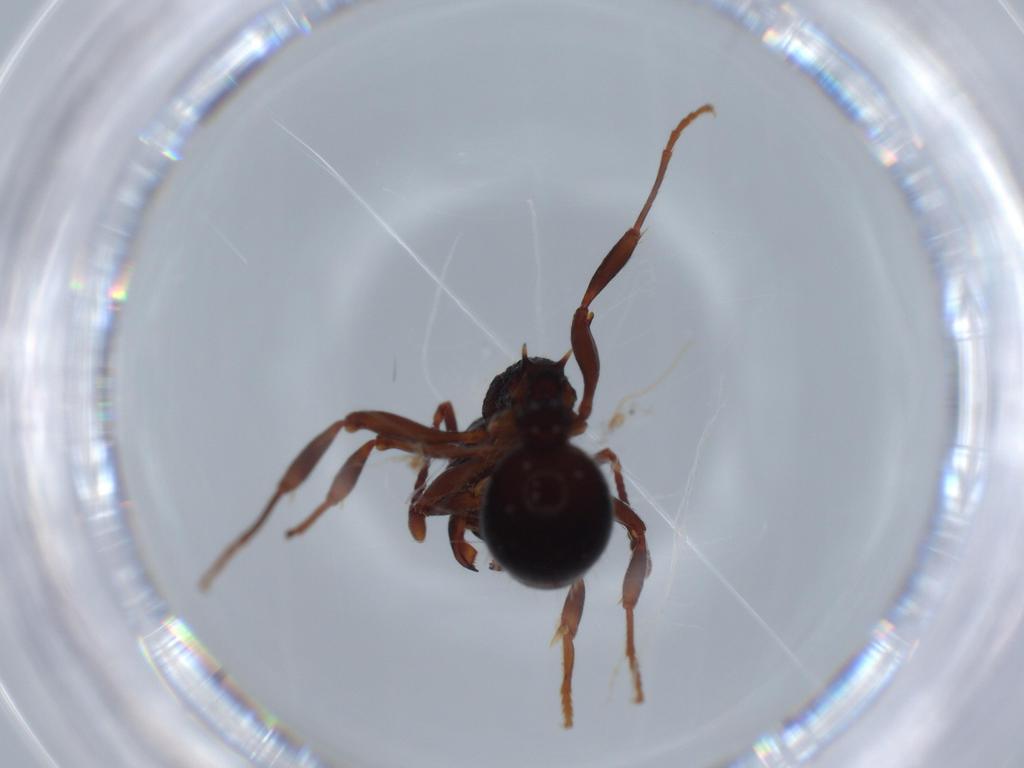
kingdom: Animalia
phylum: Arthropoda
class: Insecta
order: Hymenoptera
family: Formicidae
